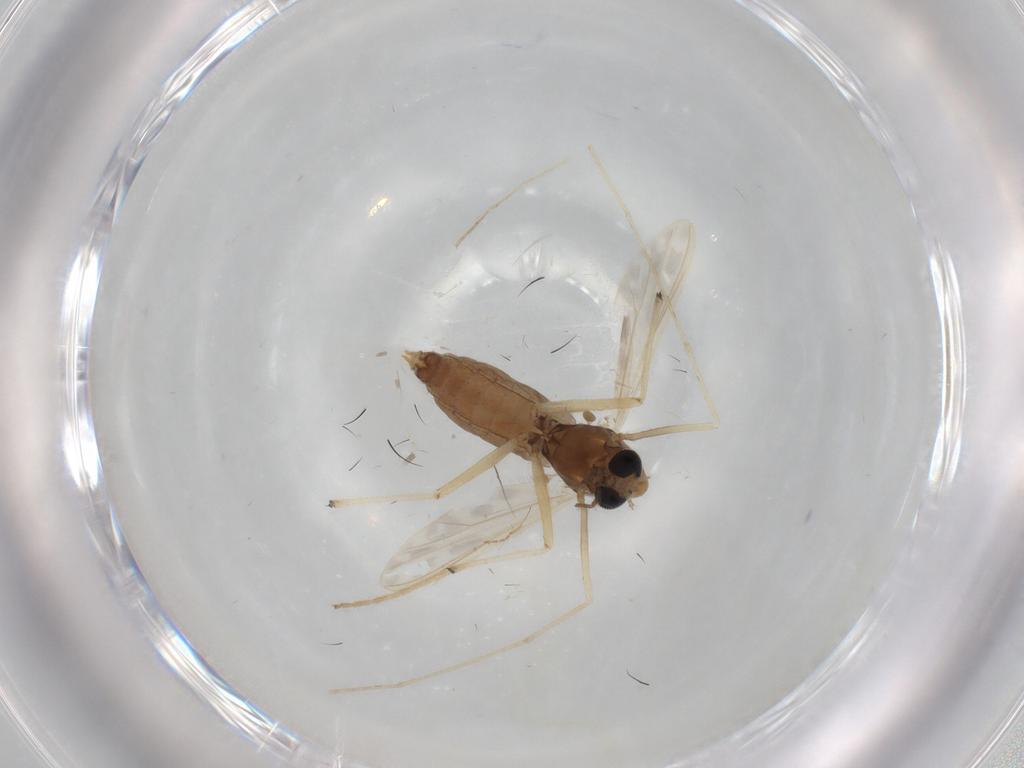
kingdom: Animalia
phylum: Arthropoda
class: Insecta
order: Diptera
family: Chironomidae
